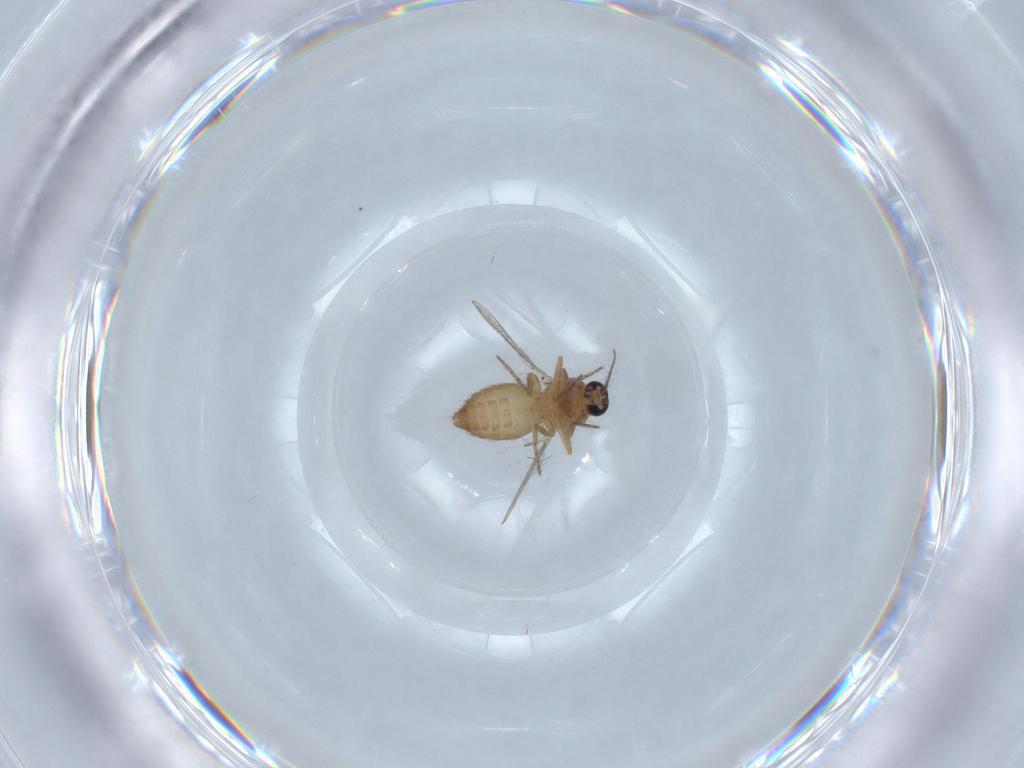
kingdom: Animalia
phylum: Arthropoda
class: Insecta
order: Diptera
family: Ceratopogonidae
